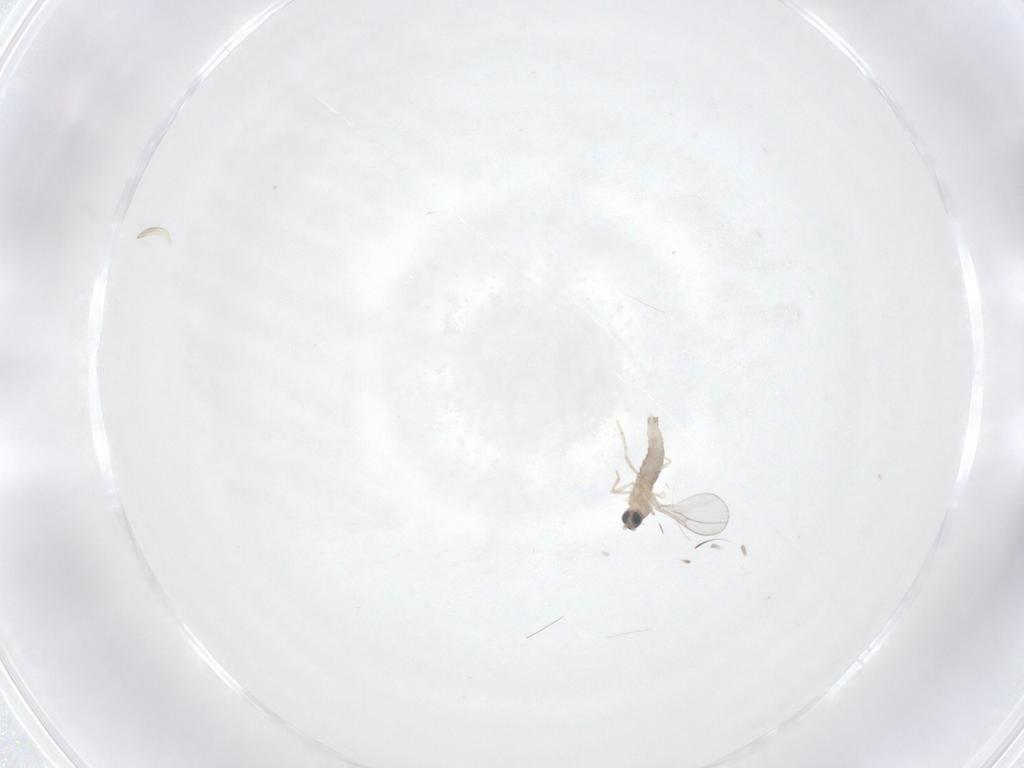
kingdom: Animalia
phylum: Arthropoda
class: Insecta
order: Diptera
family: Cecidomyiidae
